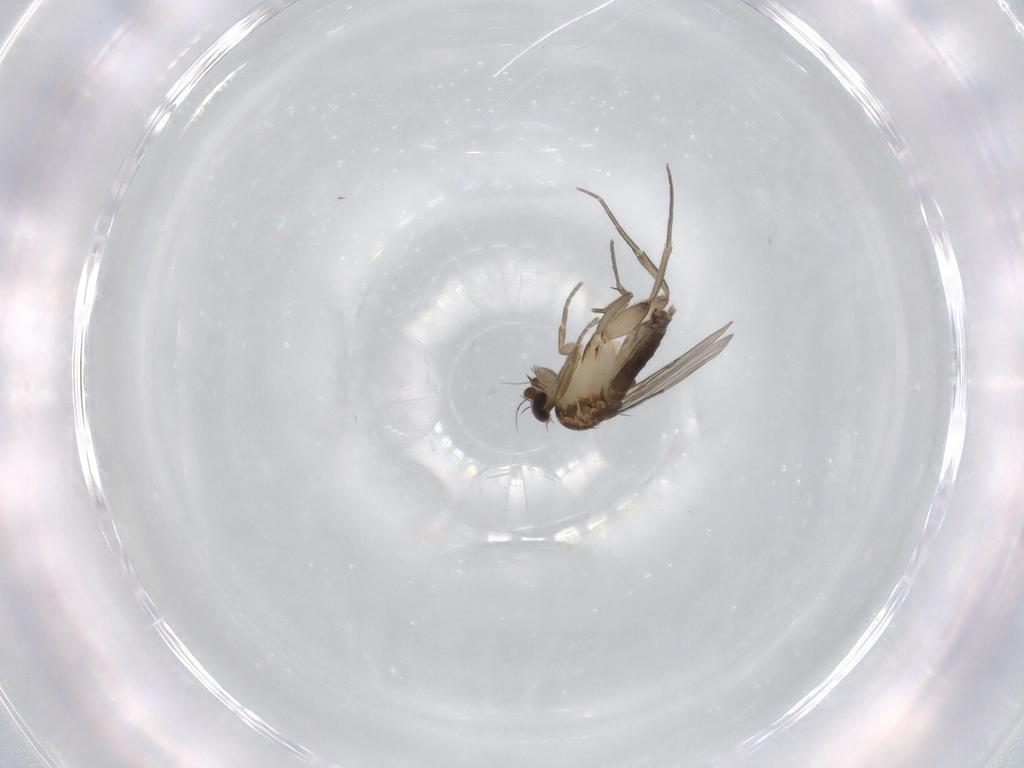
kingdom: Animalia
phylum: Arthropoda
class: Insecta
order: Diptera
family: Phoridae
